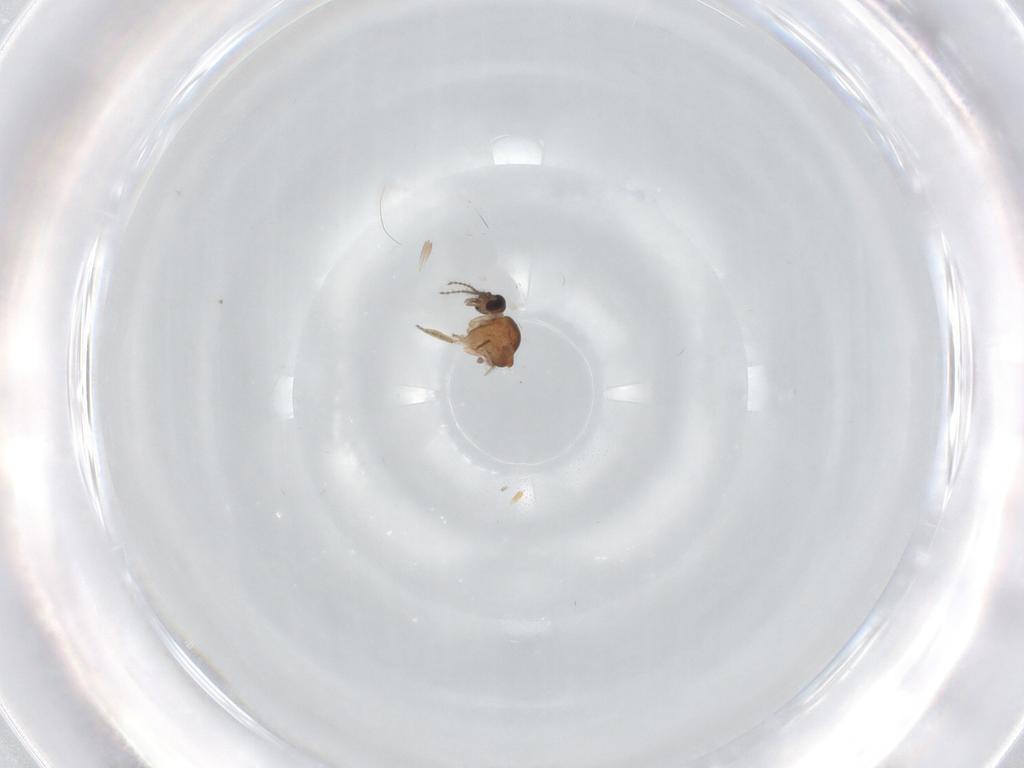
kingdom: Animalia
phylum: Arthropoda
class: Insecta
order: Diptera
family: Ceratopogonidae
